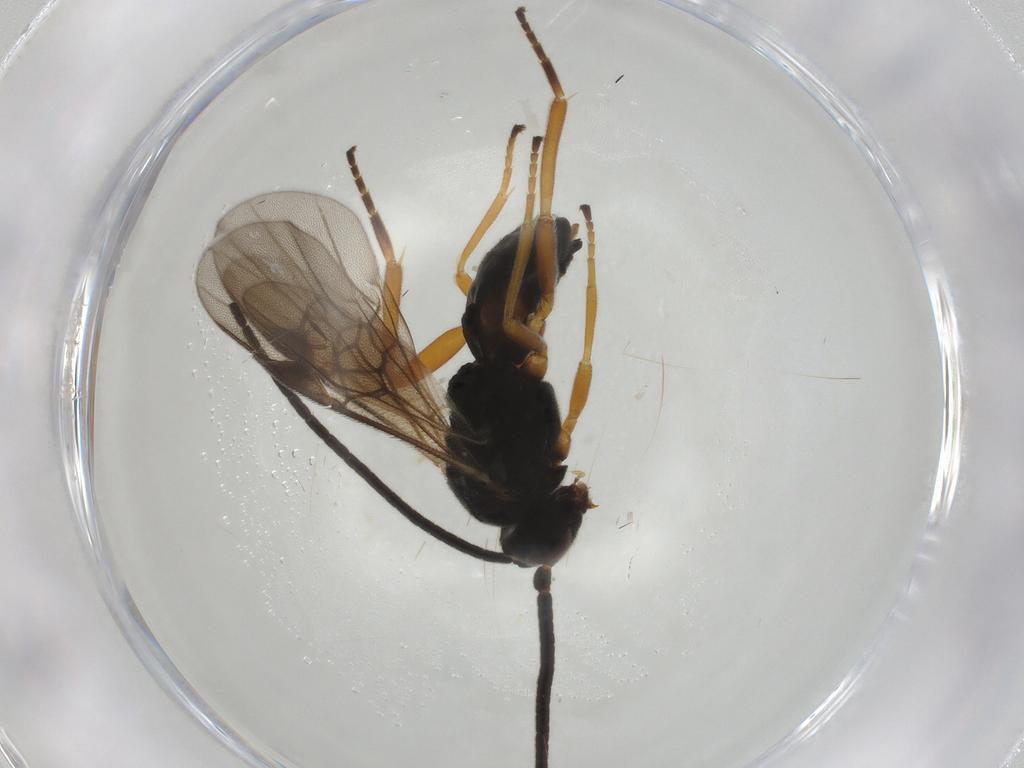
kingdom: Animalia
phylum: Arthropoda
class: Insecta
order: Hymenoptera
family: Braconidae
